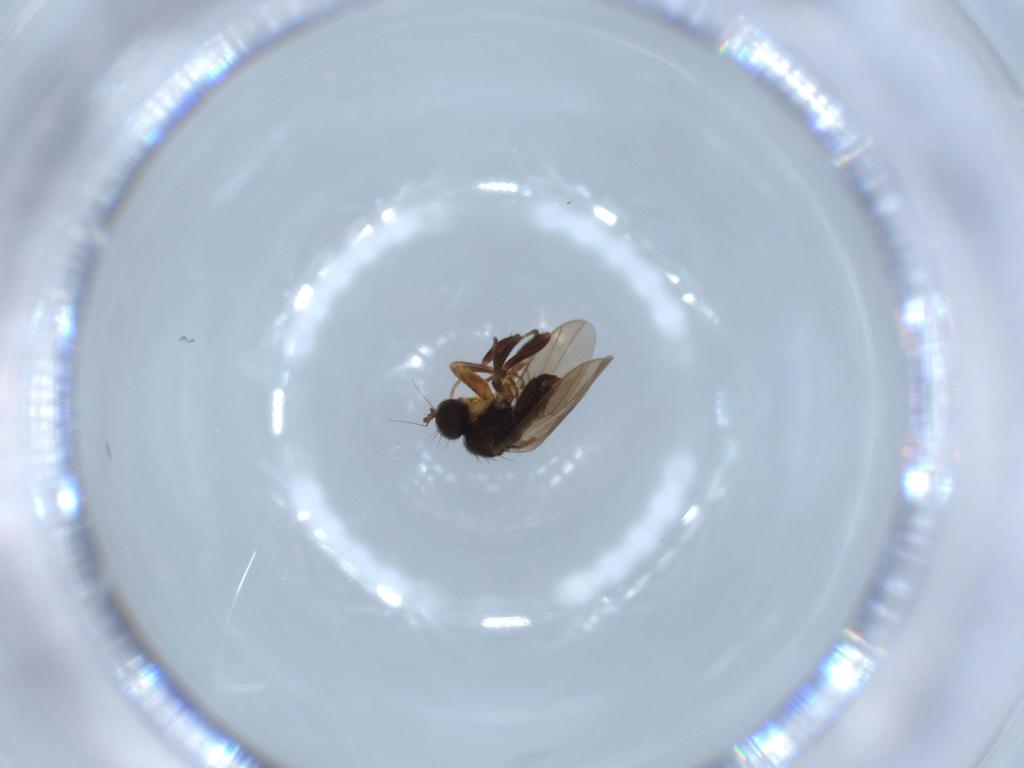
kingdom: Animalia
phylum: Arthropoda
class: Insecta
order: Diptera
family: Hybotidae
